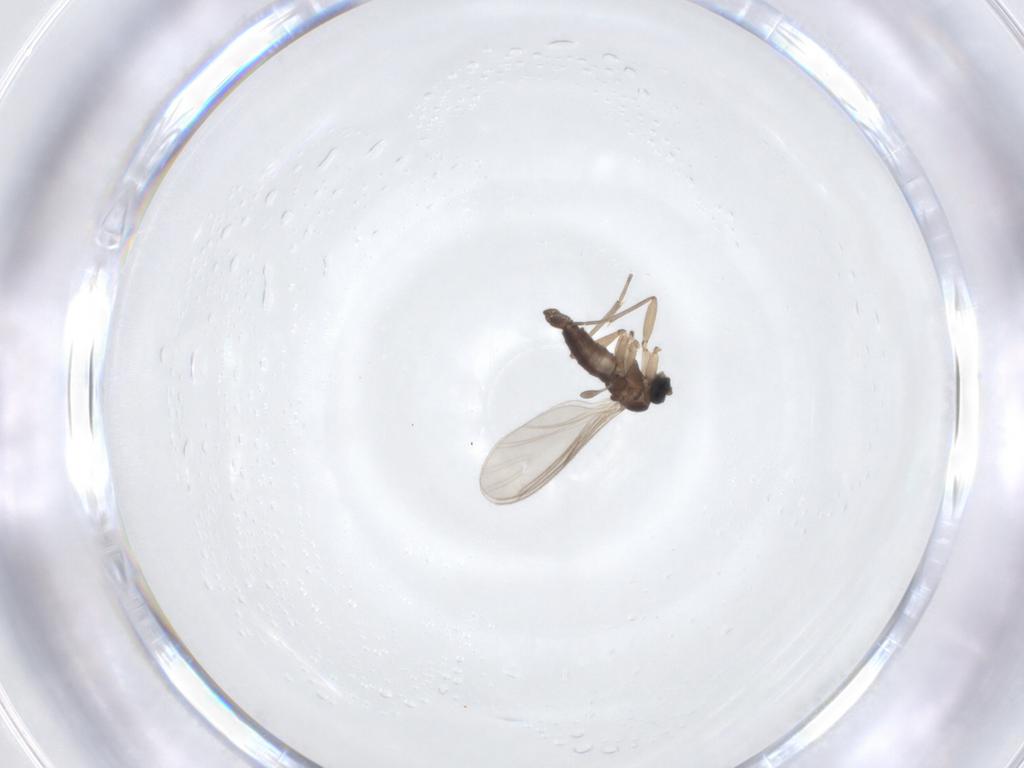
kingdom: Animalia
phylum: Arthropoda
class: Insecta
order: Diptera
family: Sciaridae
